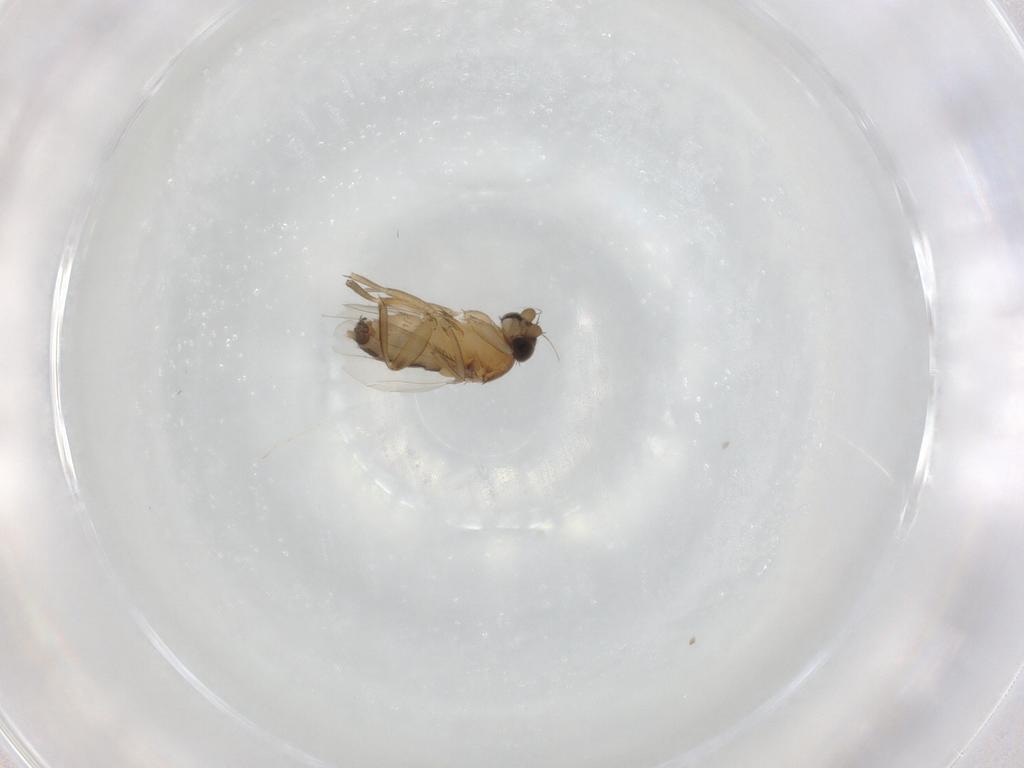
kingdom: Animalia
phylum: Arthropoda
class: Insecta
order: Diptera
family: Phoridae
